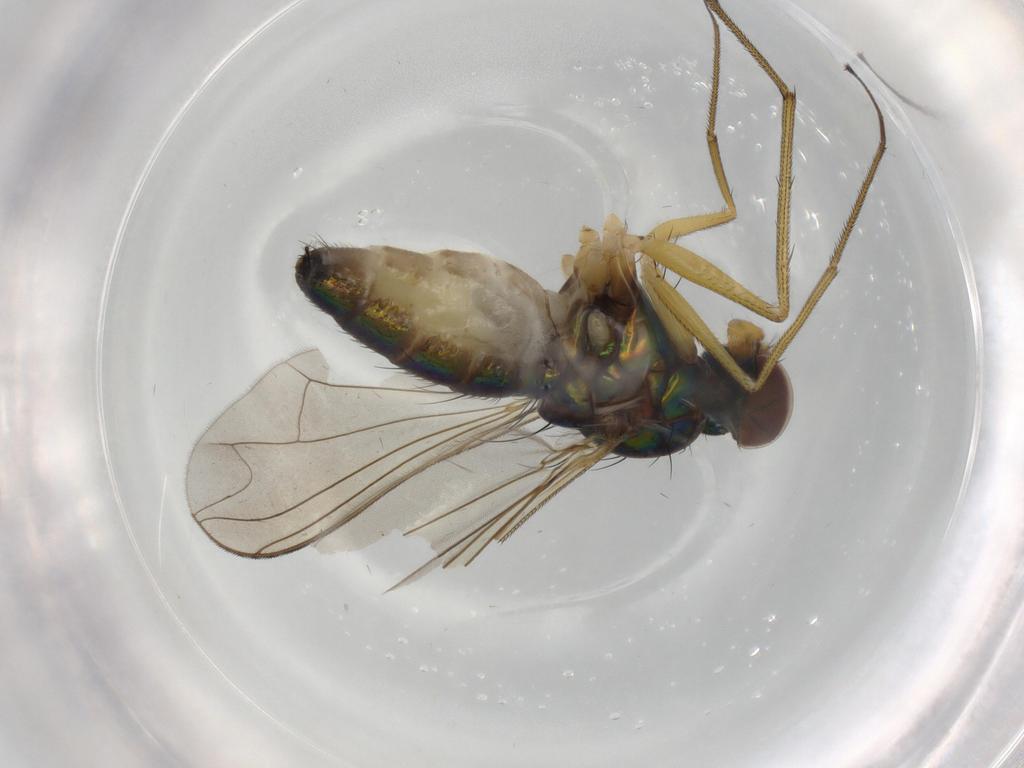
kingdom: Animalia
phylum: Arthropoda
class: Insecta
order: Diptera
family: Dolichopodidae
